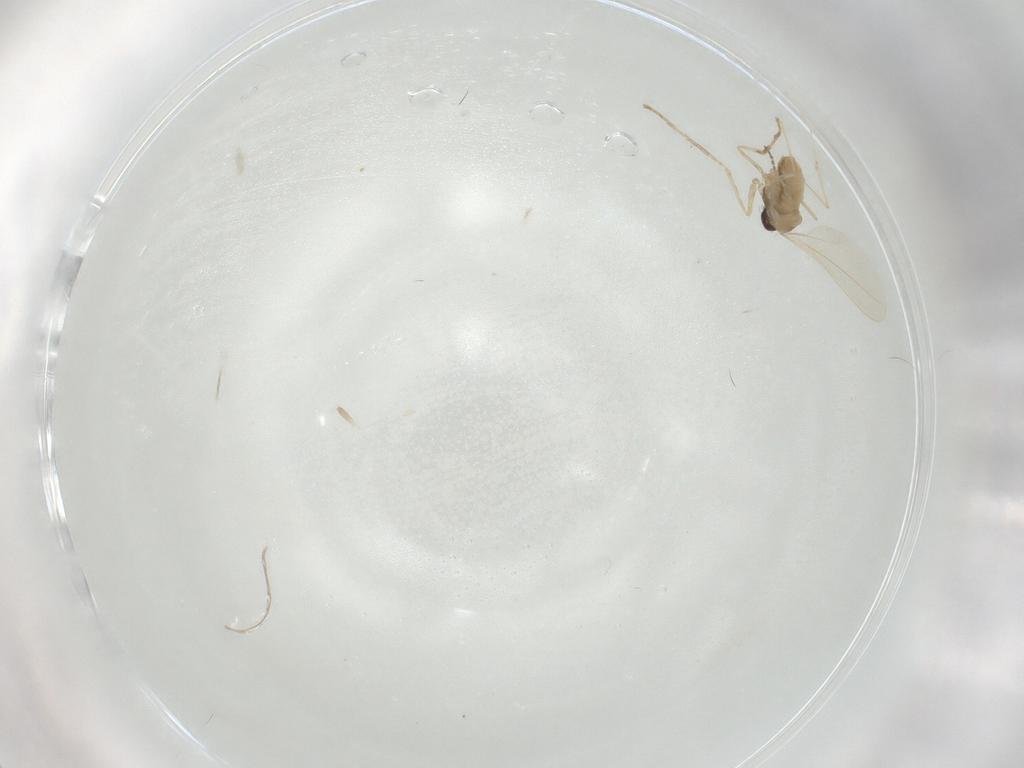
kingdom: Animalia
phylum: Arthropoda
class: Insecta
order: Diptera
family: Cecidomyiidae
